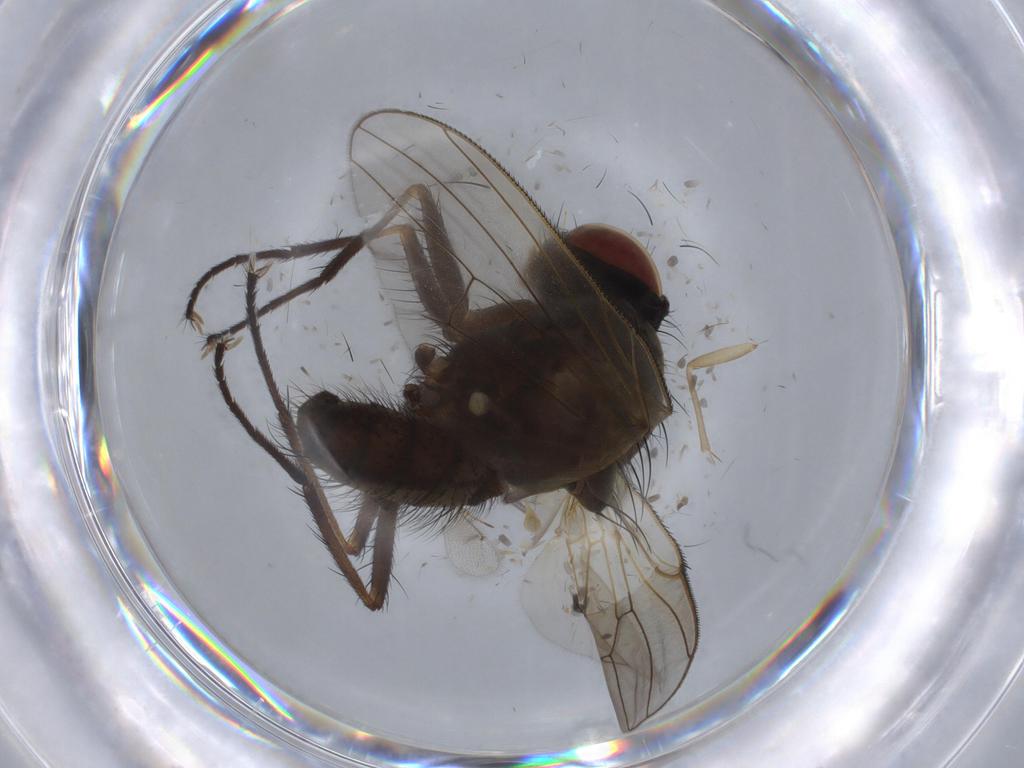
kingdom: Animalia
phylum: Arthropoda
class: Insecta
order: Diptera
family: Anthomyiidae
